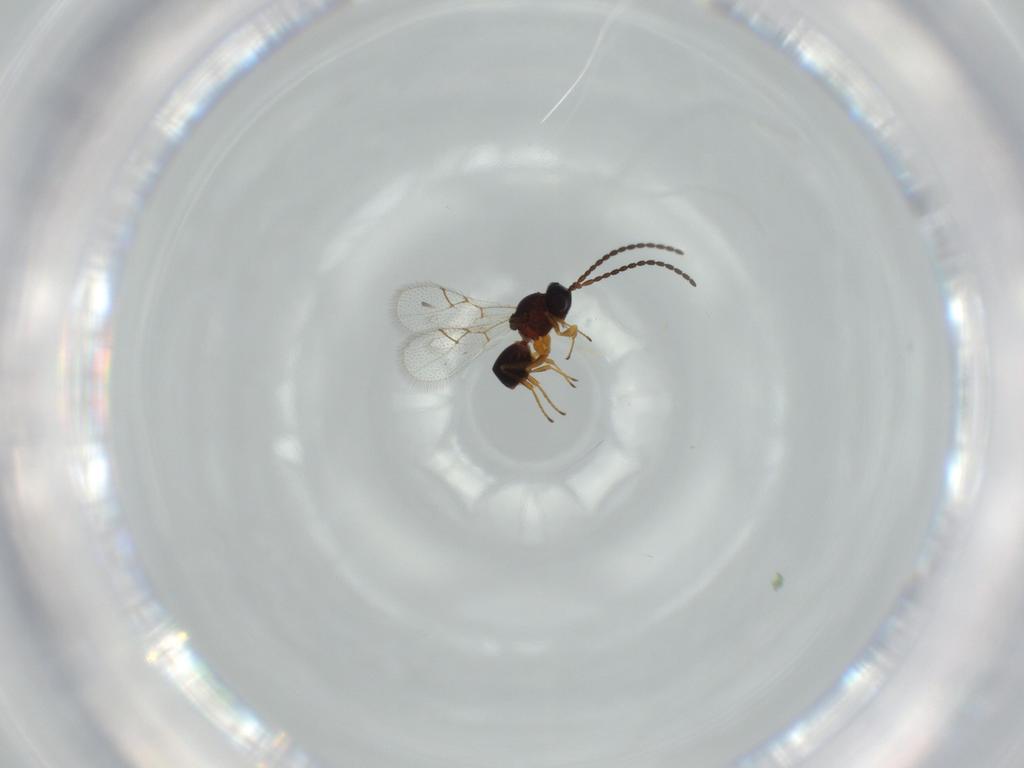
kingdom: Animalia
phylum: Arthropoda
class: Insecta
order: Hymenoptera
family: Figitidae
